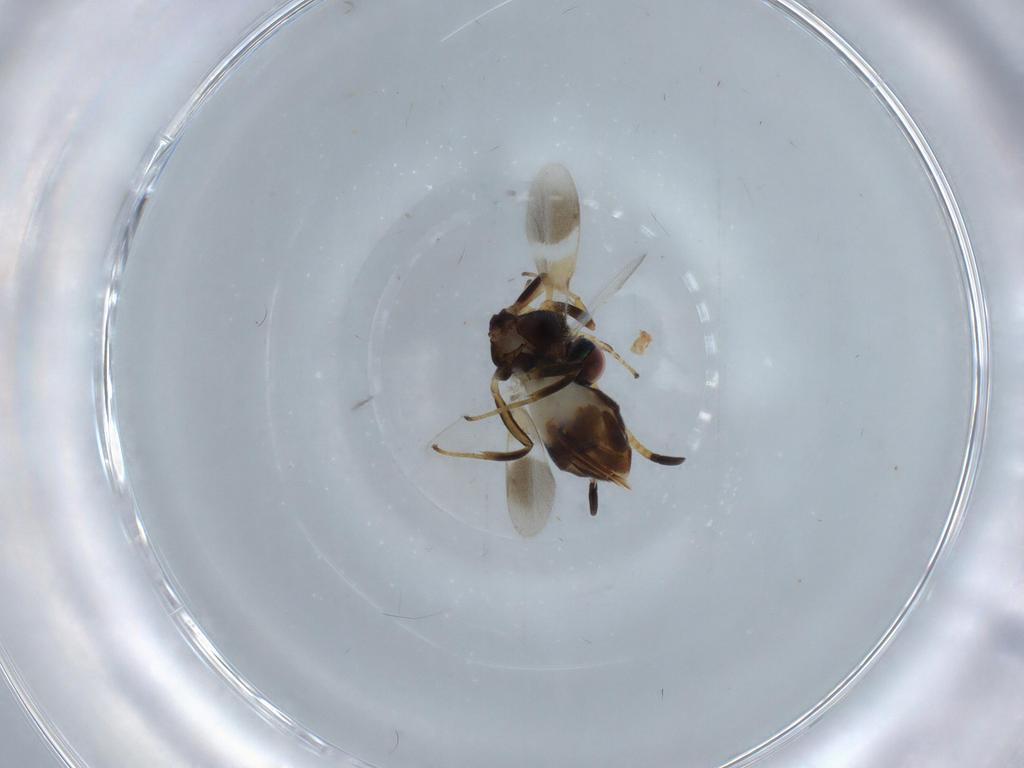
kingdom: Animalia
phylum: Arthropoda
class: Insecta
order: Hymenoptera
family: Eupelmidae
